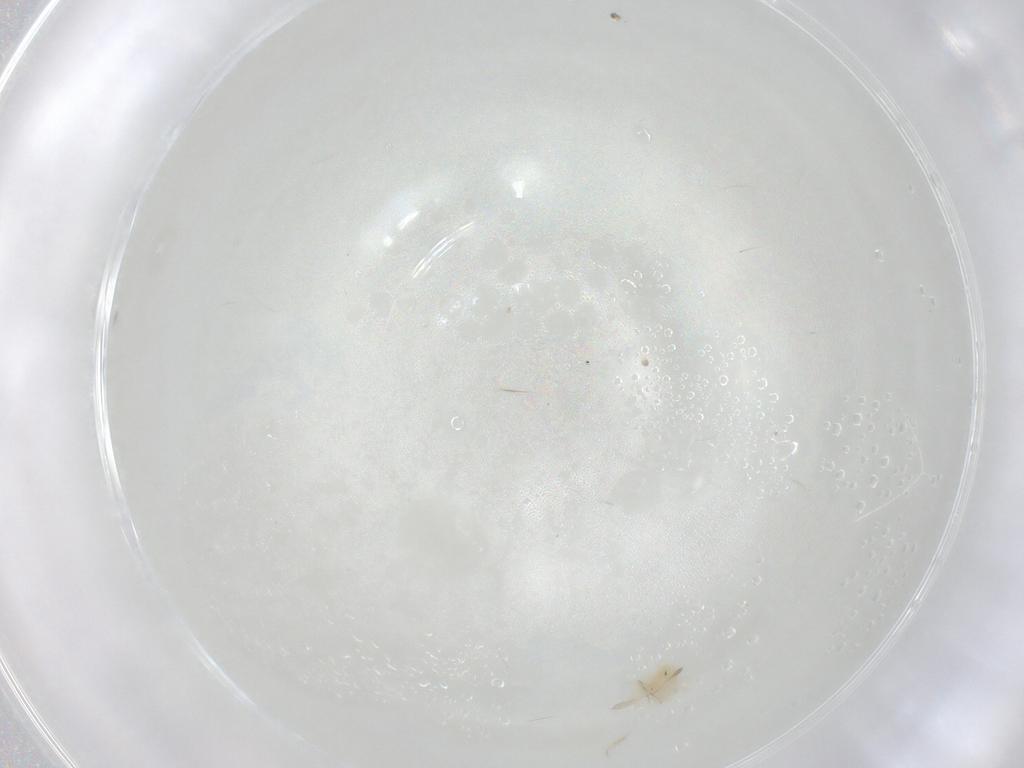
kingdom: Animalia
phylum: Arthropoda
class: Arachnida
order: Trombidiformes
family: Anystidae
